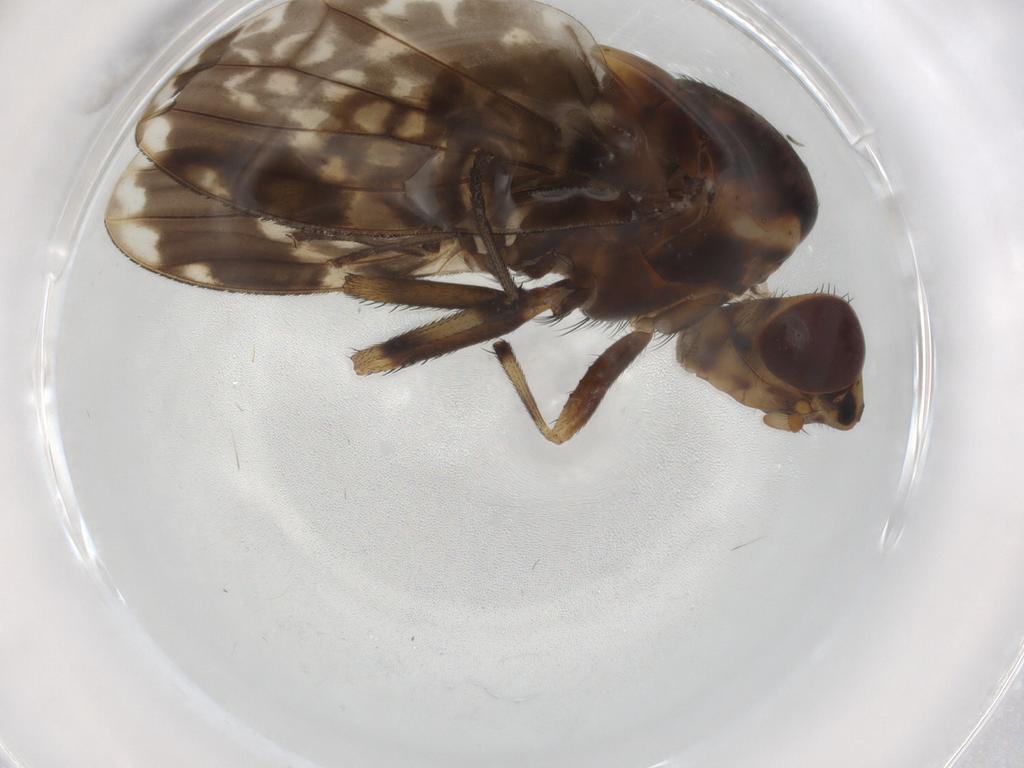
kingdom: Animalia
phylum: Arthropoda
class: Insecta
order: Diptera
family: Culicidae
